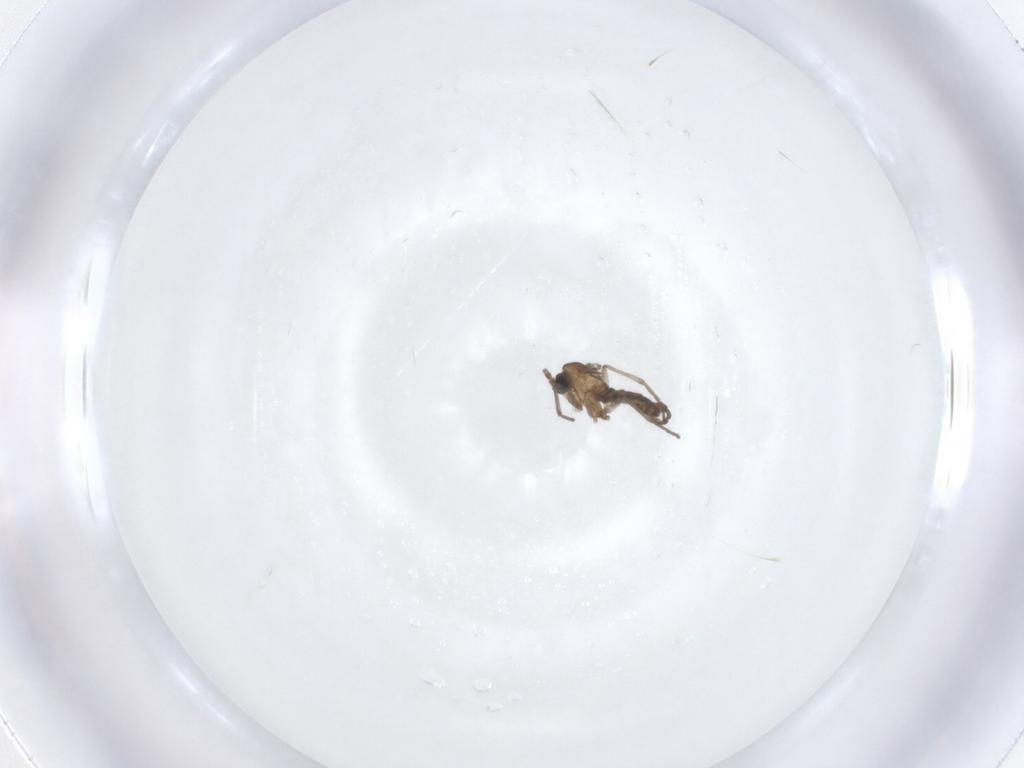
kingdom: Animalia
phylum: Arthropoda
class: Insecta
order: Diptera
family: Sciaridae
